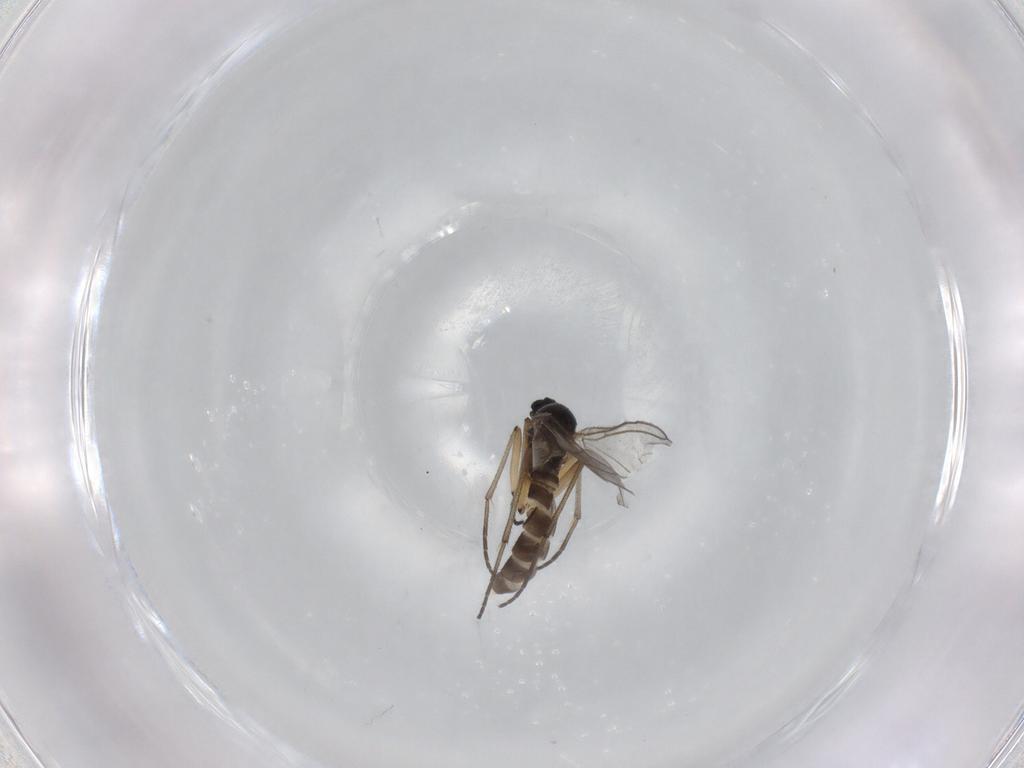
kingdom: Animalia
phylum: Arthropoda
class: Insecta
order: Diptera
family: Sciaridae
